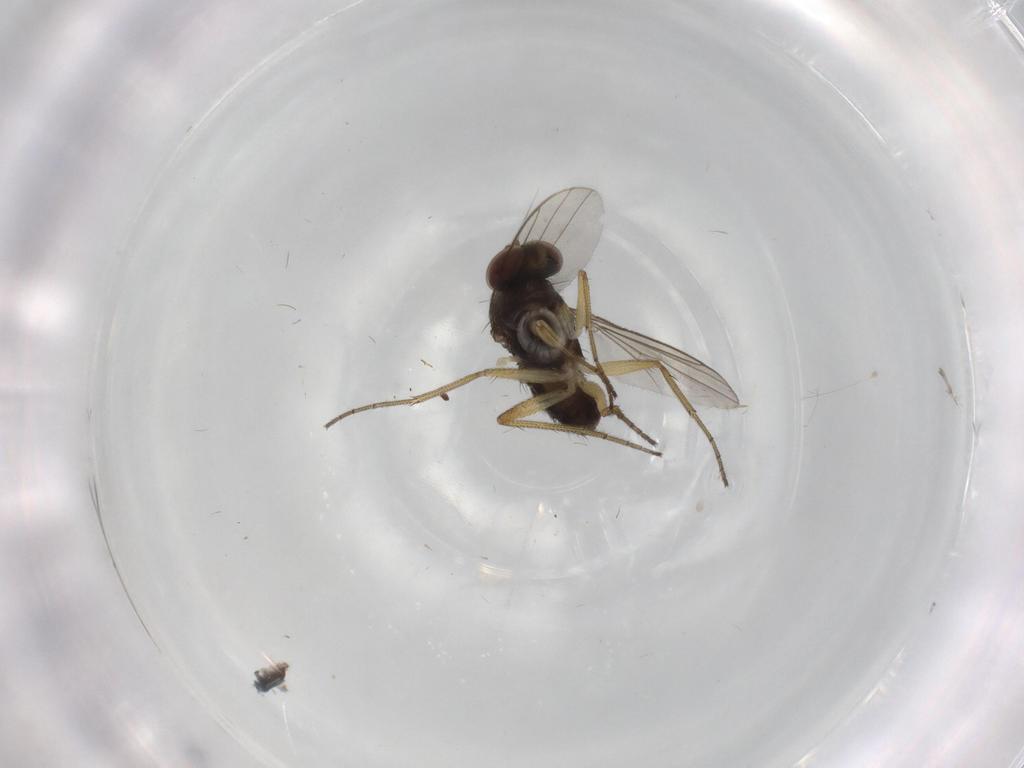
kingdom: Animalia
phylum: Arthropoda
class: Insecta
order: Diptera
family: Dolichopodidae
